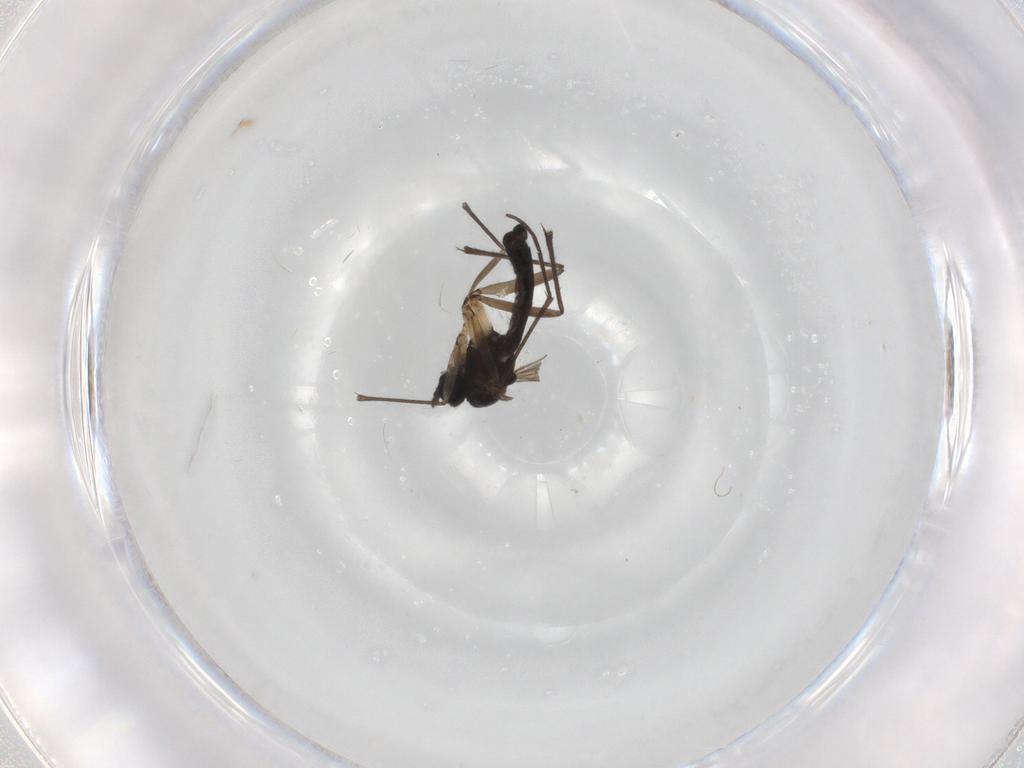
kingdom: Animalia
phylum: Arthropoda
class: Insecta
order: Diptera
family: Sciaridae
